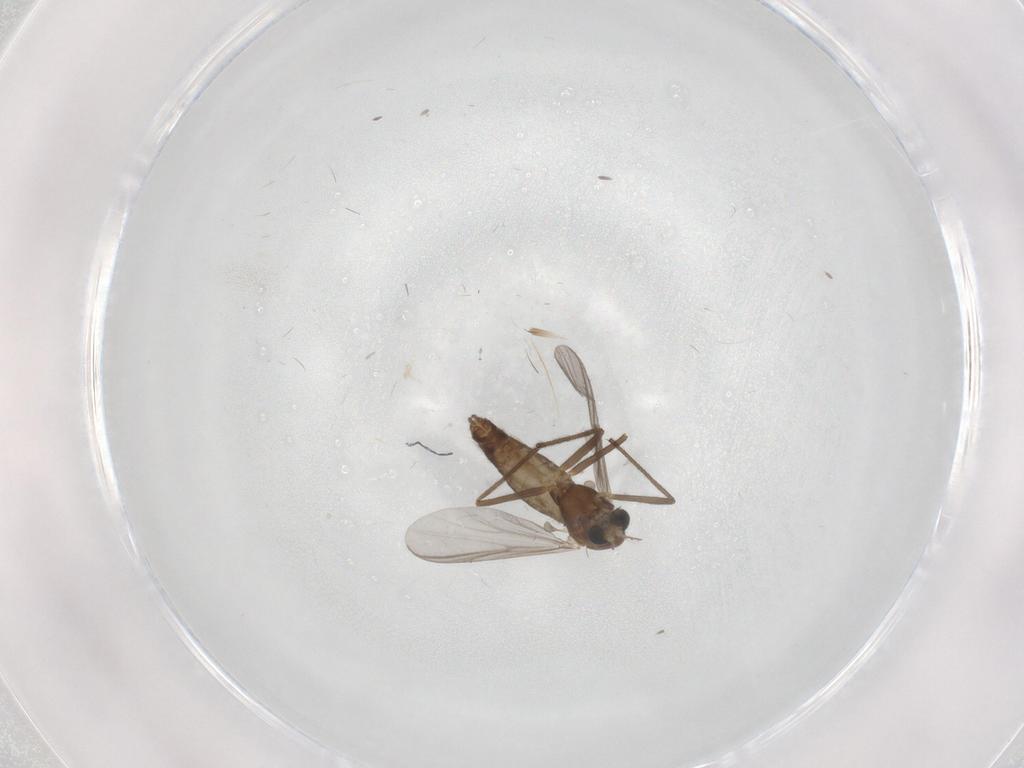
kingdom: Animalia
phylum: Arthropoda
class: Insecta
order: Diptera
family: Chironomidae
